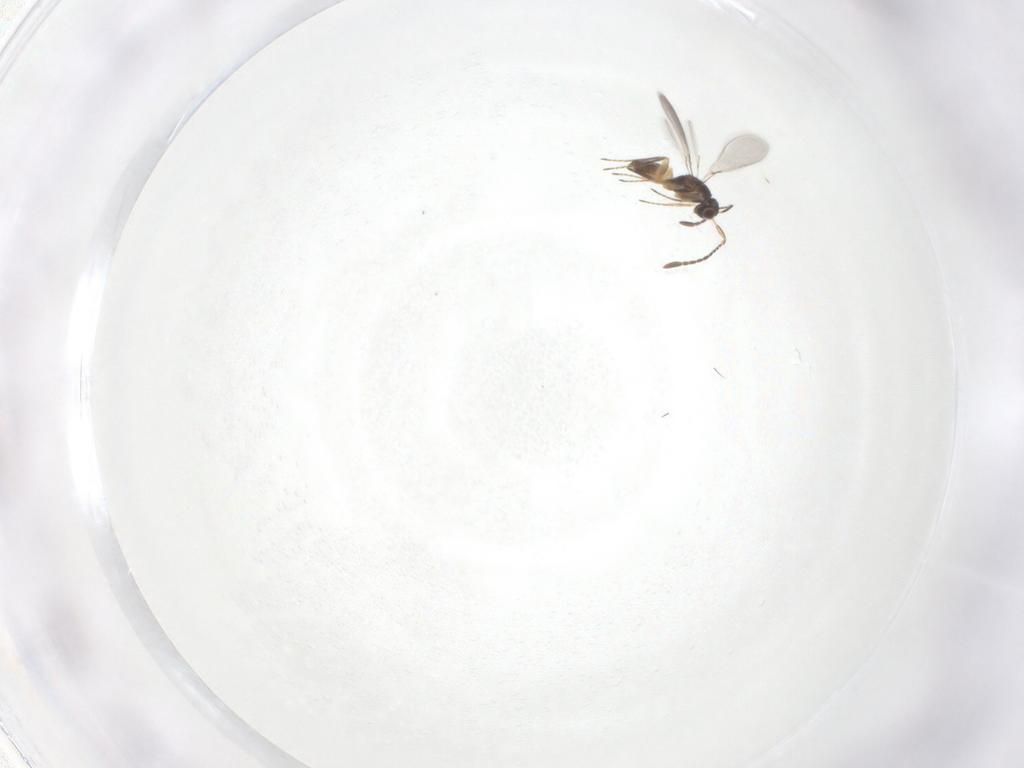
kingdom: Animalia
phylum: Arthropoda
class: Insecta
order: Hymenoptera
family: Mymaridae
